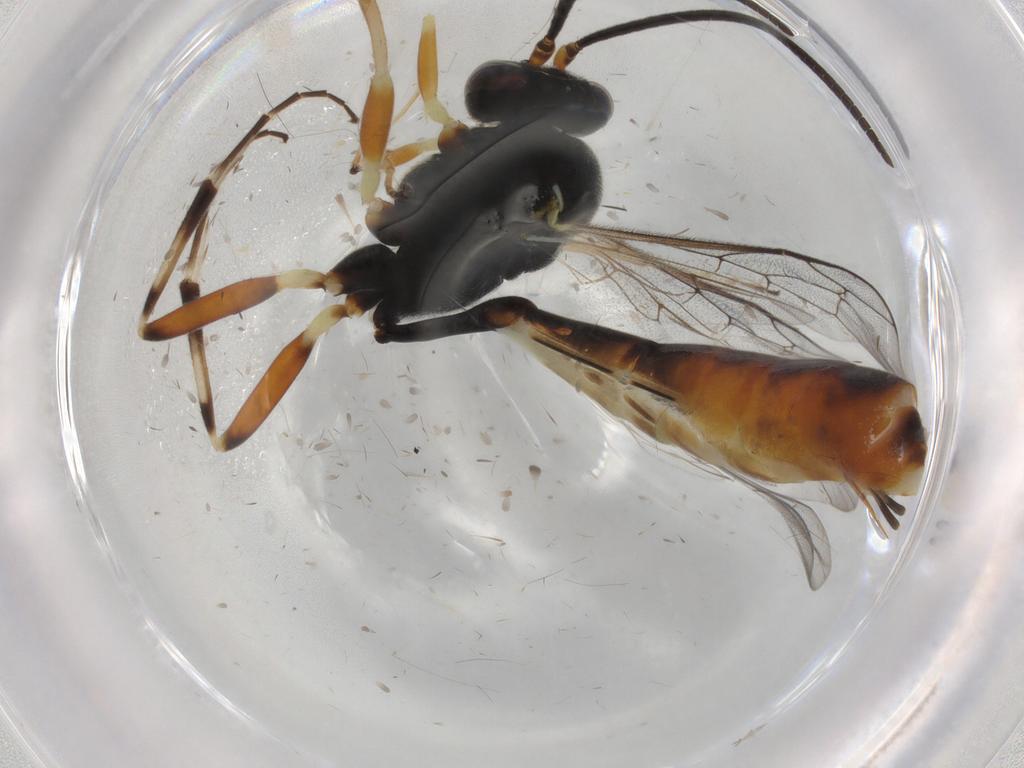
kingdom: Animalia
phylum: Arthropoda
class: Insecta
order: Hymenoptera
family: Ichneumonidae
